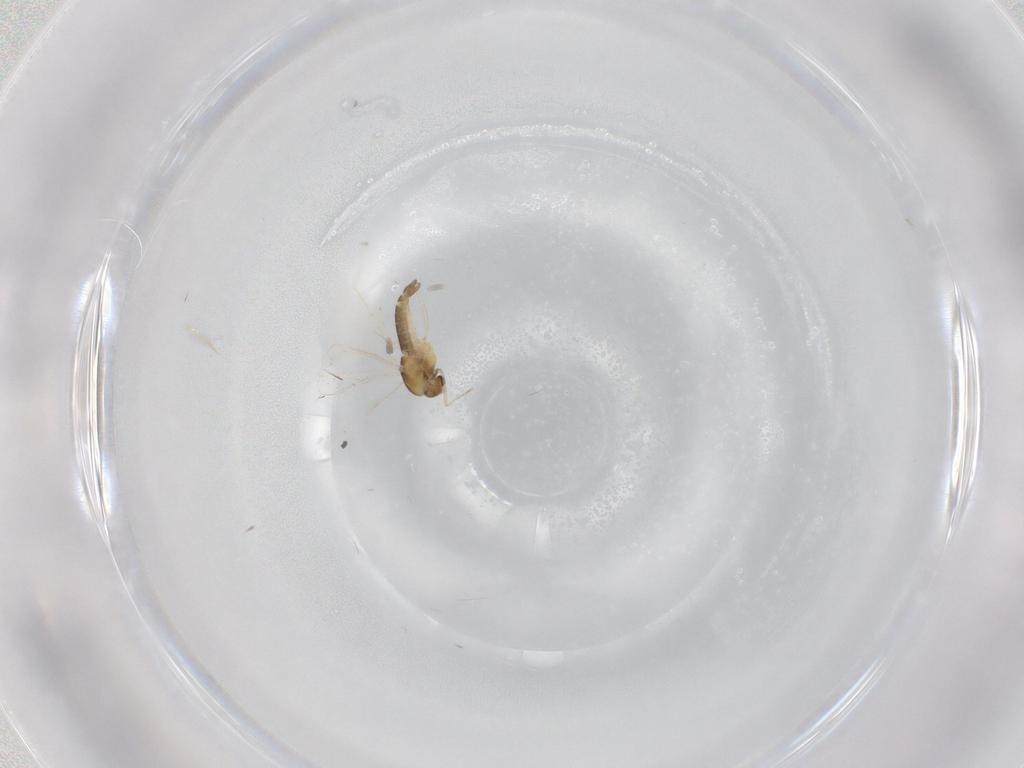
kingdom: Animalia
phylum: Arthropoda
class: Insecta
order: Diptera
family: Chironomidae
